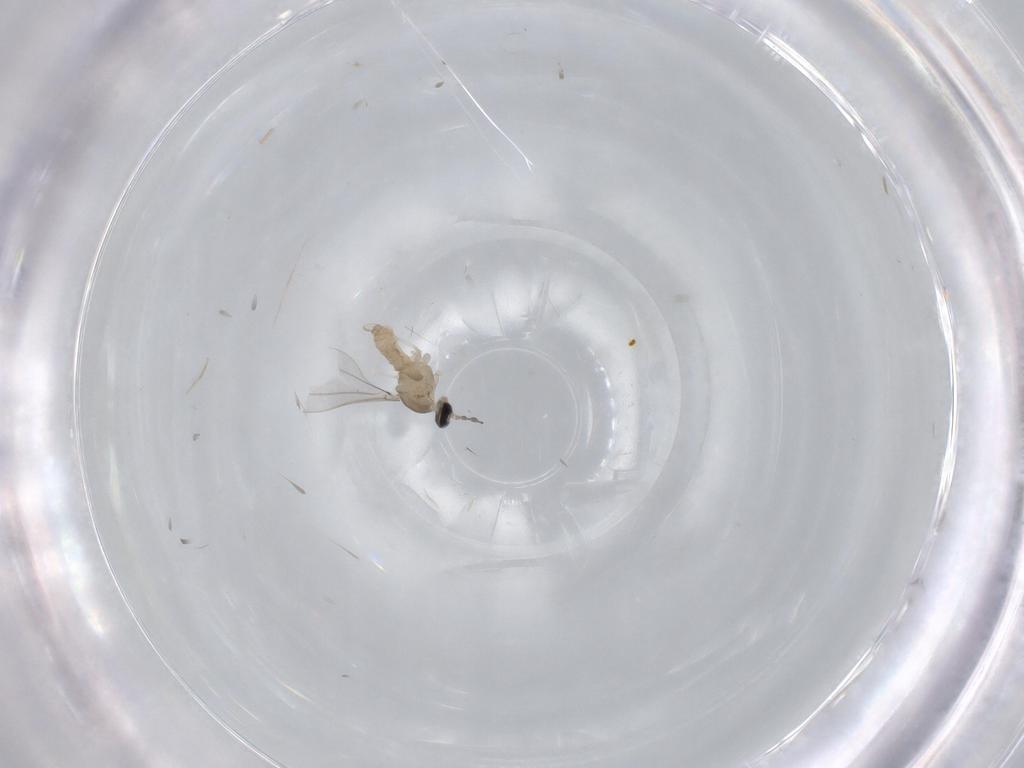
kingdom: Animalia
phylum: Arthropoda
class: Insecta
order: Diptera
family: Cecidomyiidae
